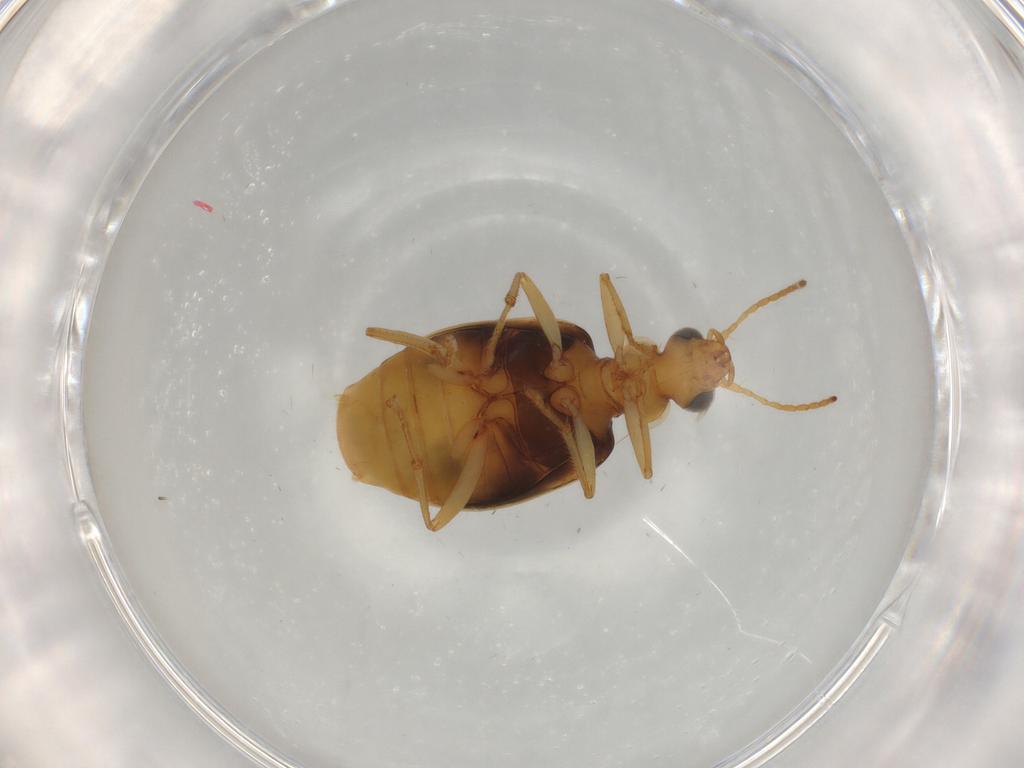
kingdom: Animalia
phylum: Arthropoda
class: Insecta
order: Coleoptera
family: Carabidae
